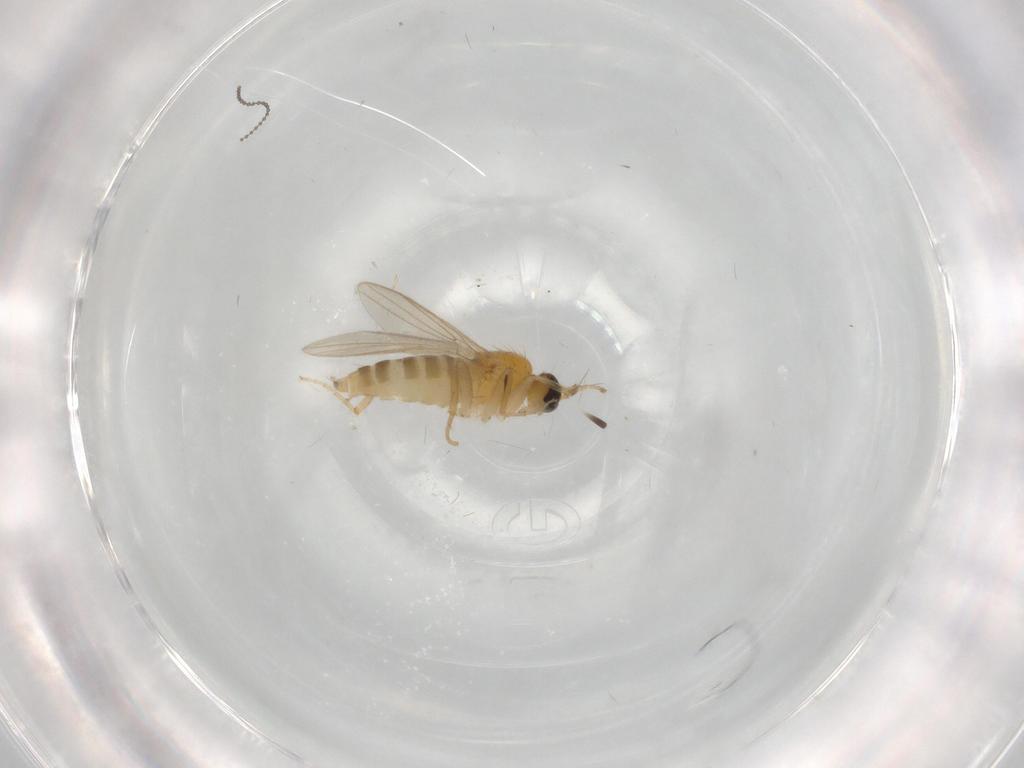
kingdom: Animalia
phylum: Arthropoda
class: Insecta
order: Diptera
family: Hybotidae
